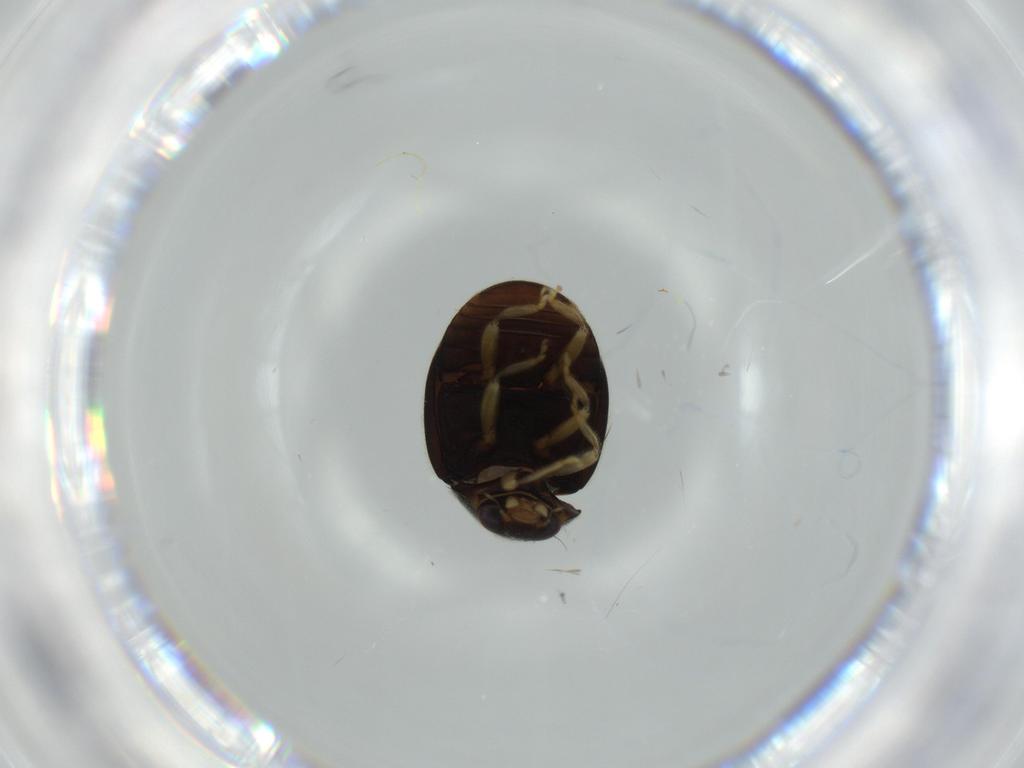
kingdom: Animalia
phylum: Arthropoda
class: Insecta
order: Coleoptera
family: Coccinellidae
